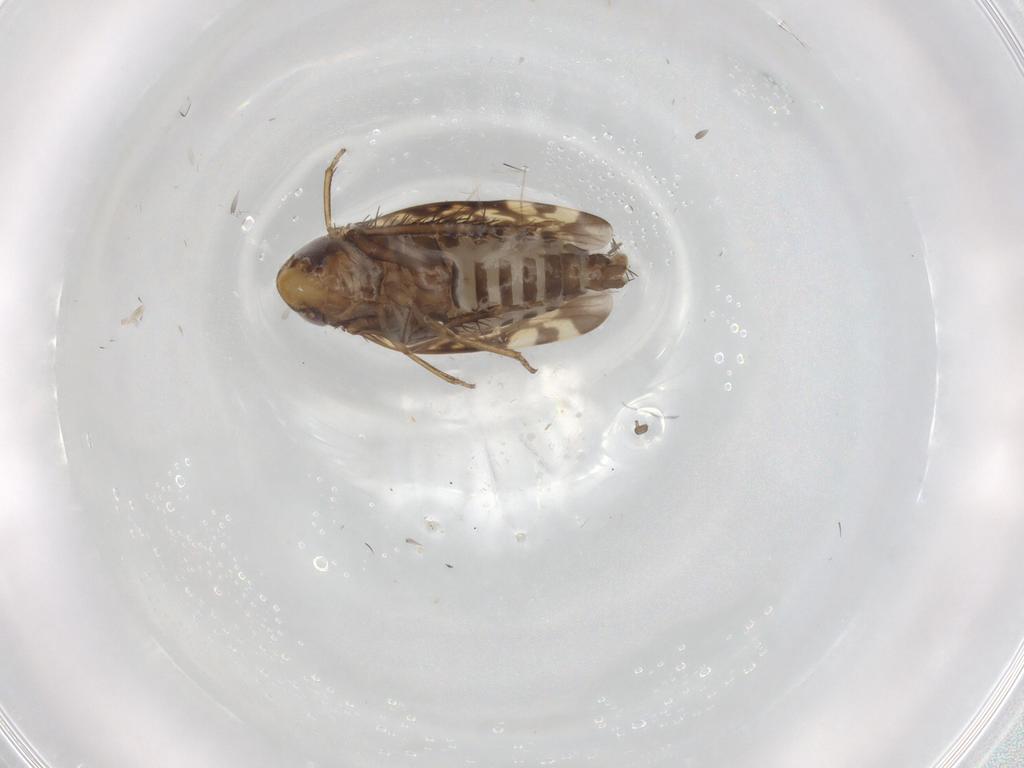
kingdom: Animalia
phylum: Arthropoda
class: Insecta
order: Hemiptera
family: Cicadellidae
